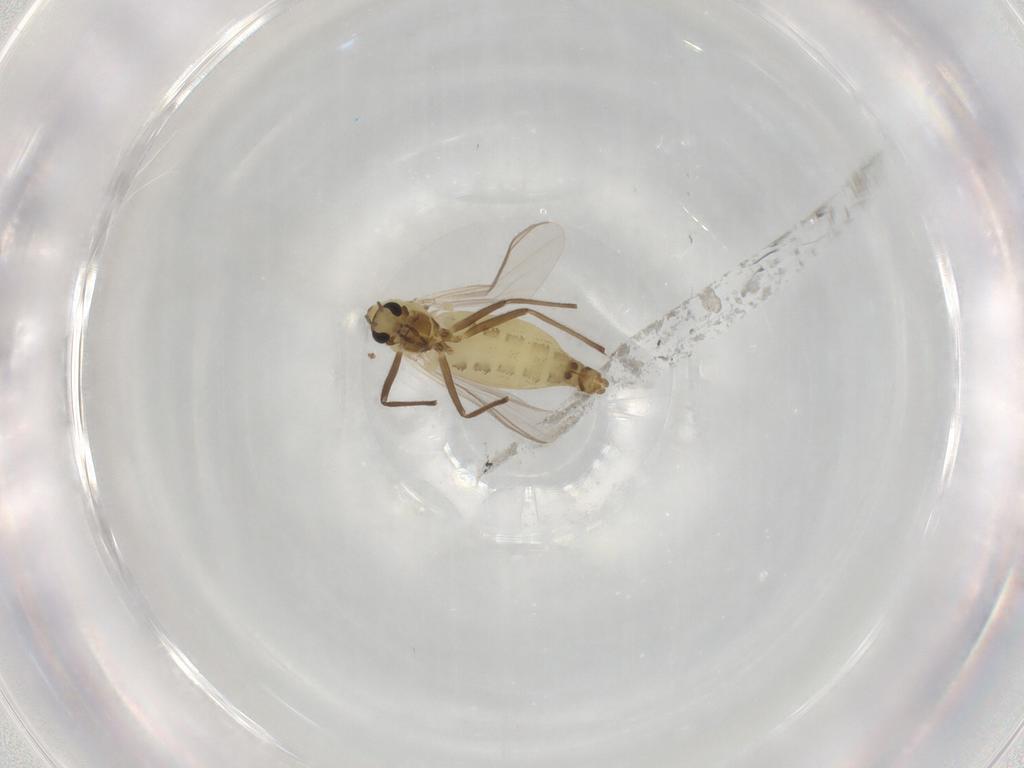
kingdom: Animalia
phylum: Arthropoda
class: Insecta
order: Diptera
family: Chironomidae
